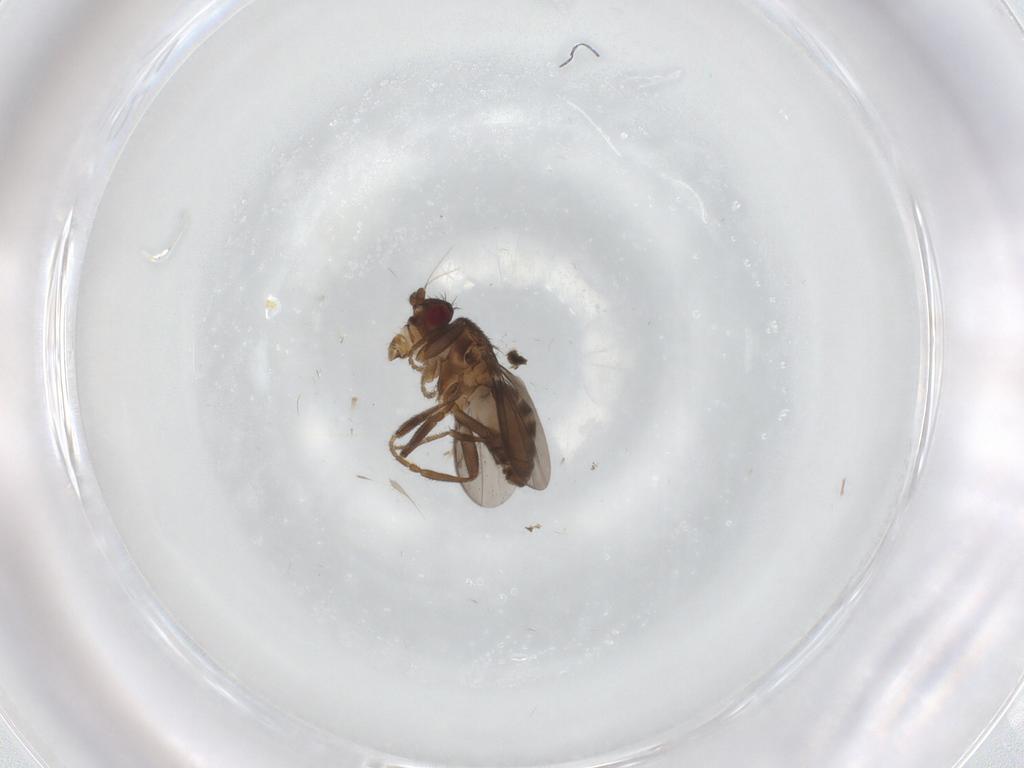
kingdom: Animalia
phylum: Arthropoda
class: Insecta
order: Diptera
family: Sphaeroceridae
